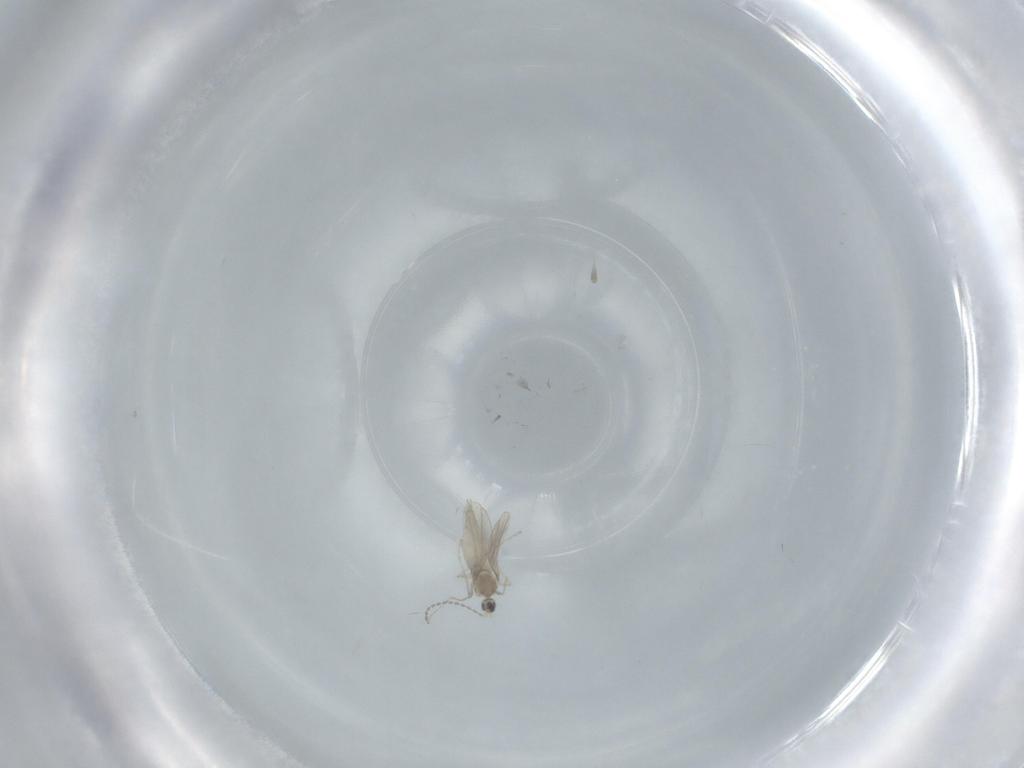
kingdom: Animalia
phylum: Arthropoda
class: Insecta
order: Diptera
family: Cecidomyiidae
